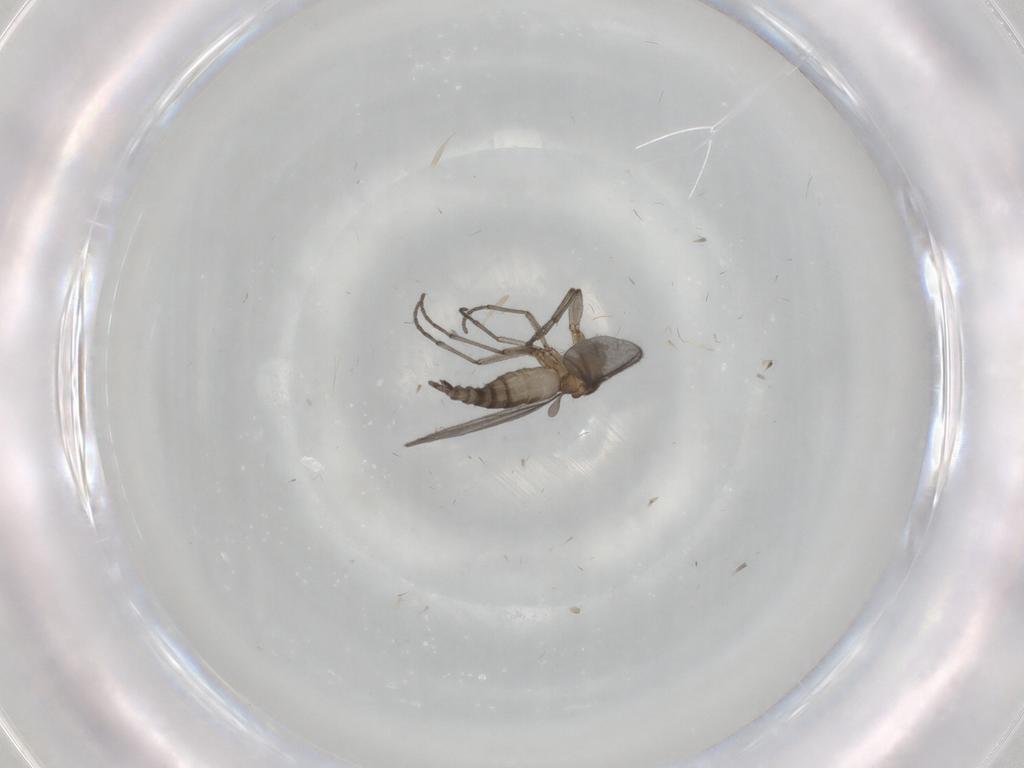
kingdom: Animalia
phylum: Arthropoda
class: Insecta
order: Diptera
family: Sciaridae
